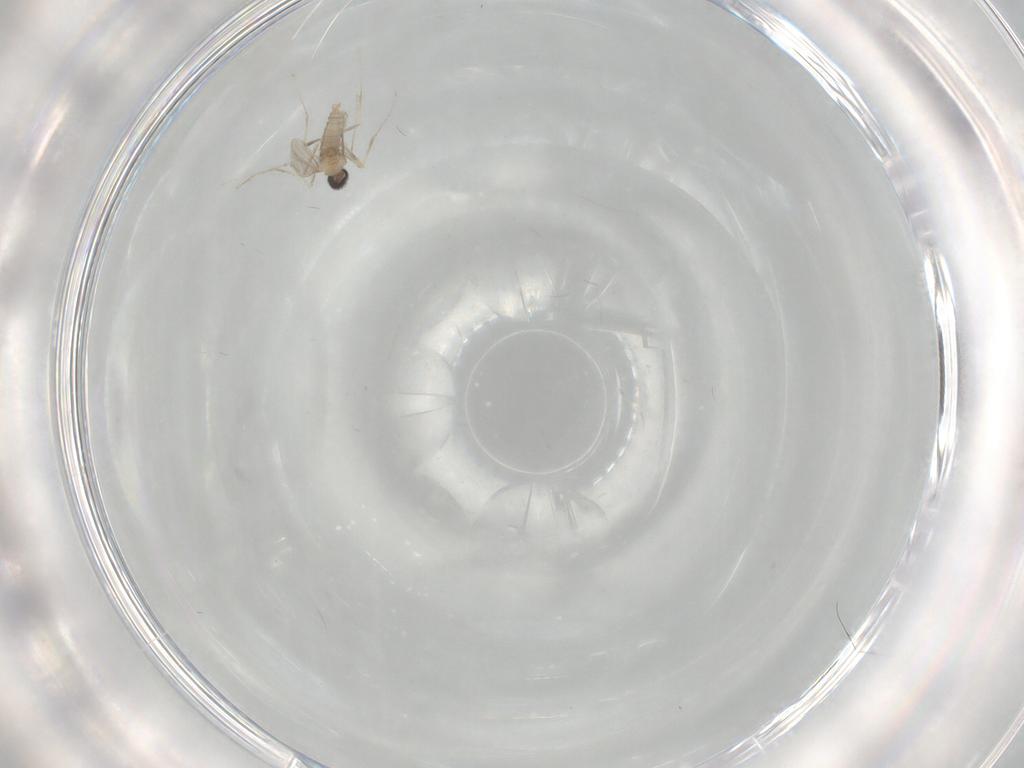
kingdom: Animalia
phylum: Arthropoda
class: Insecta
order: Diptera
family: Cecidomyiidae
